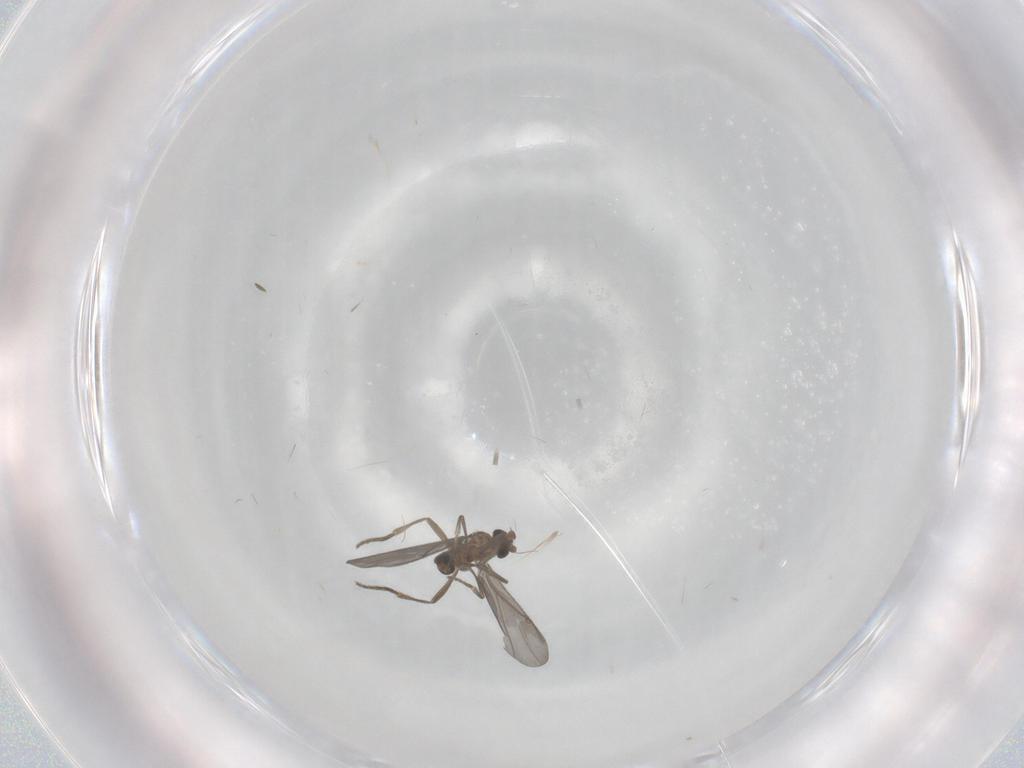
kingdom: Animalia
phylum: Arthropoda
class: Insecta
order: Diptera
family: Phoridae
